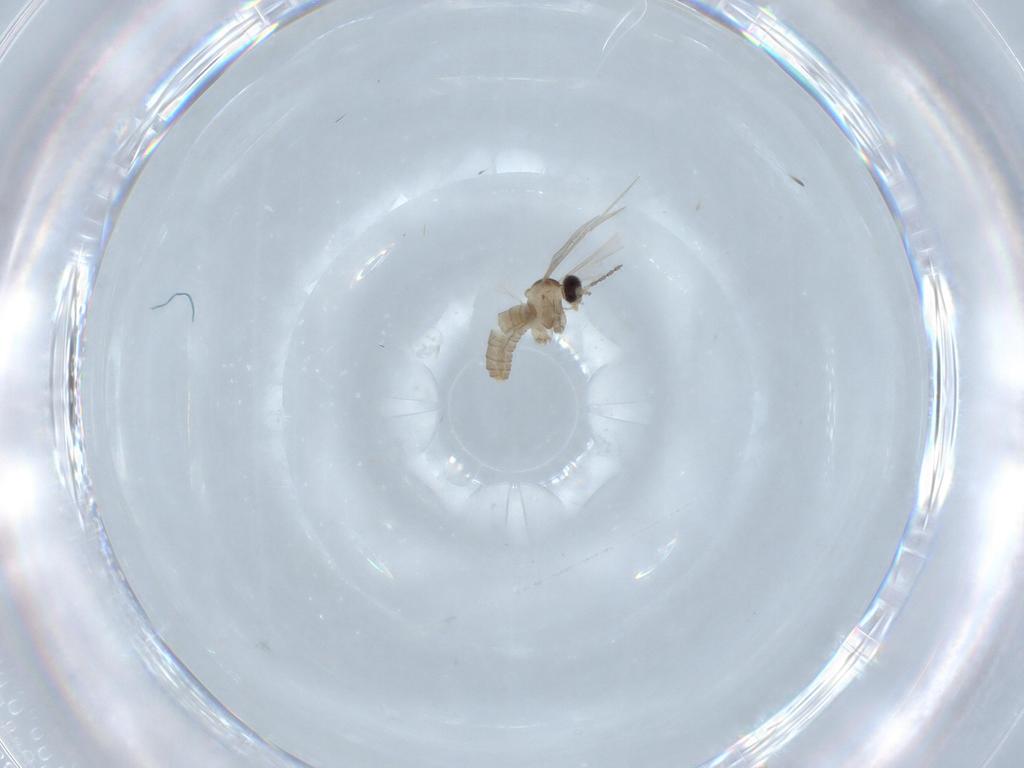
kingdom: Animalia
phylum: Arthropoda
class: Insecta
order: Diptera
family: Cecidomyiidae
